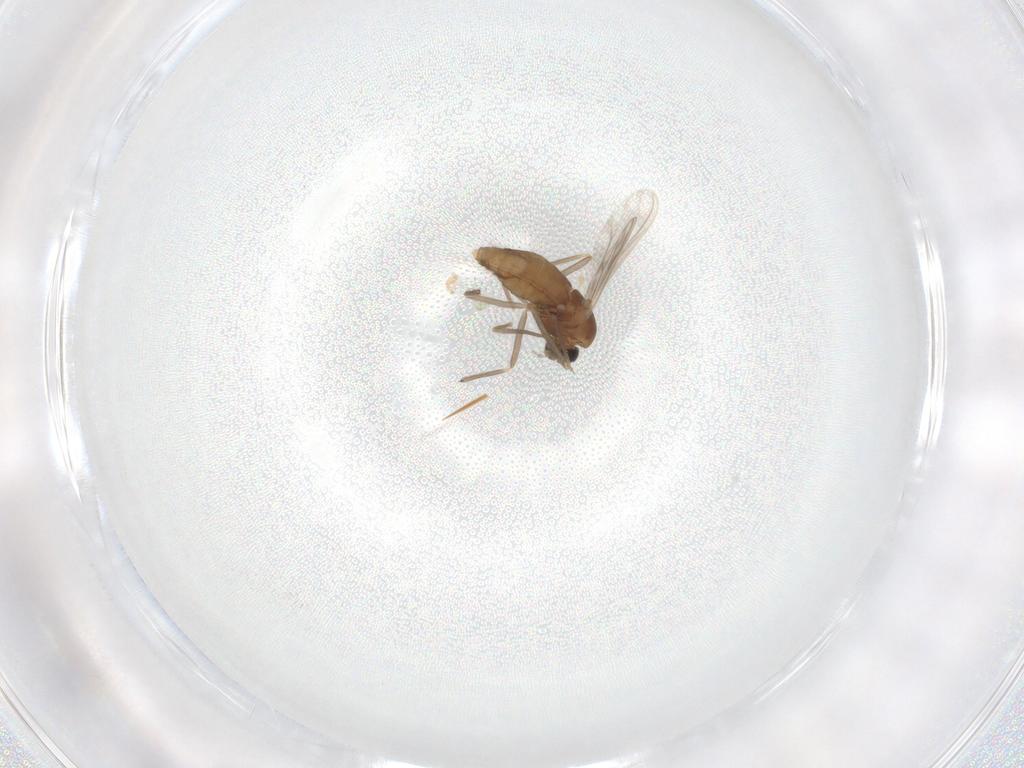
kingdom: Animalia
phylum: Arthropoda
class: Insecta
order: Diptera
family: Chironomidae
